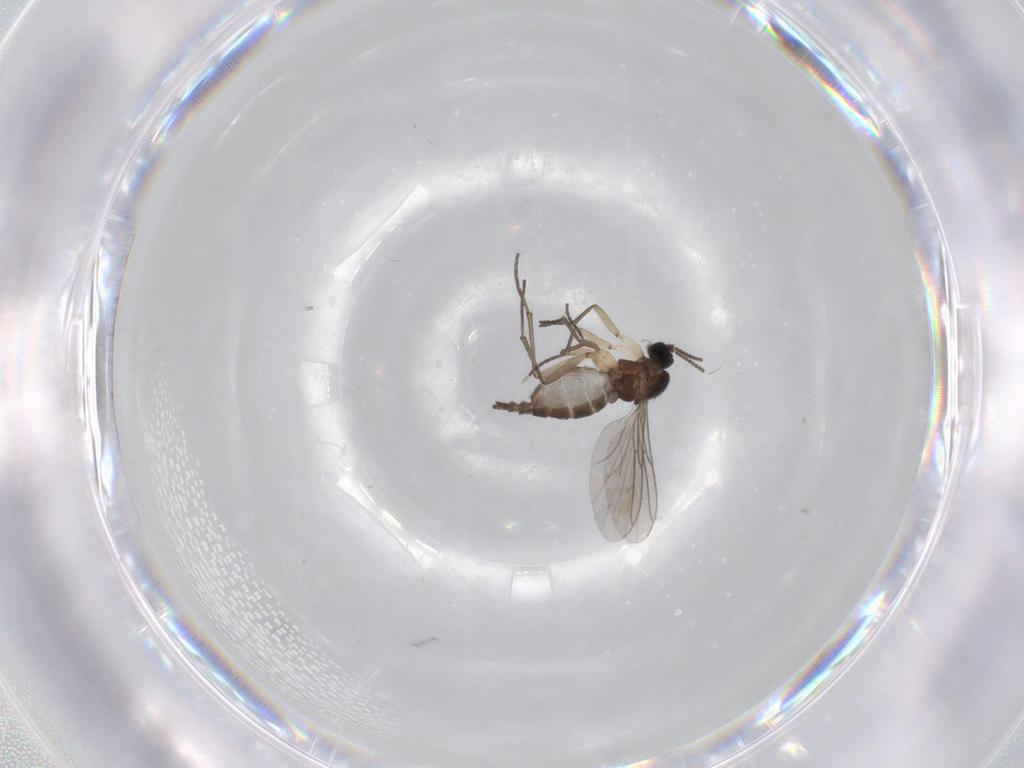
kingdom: Animalia
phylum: Arthropoda
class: Insecta
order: Diptera
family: Sciaridae
